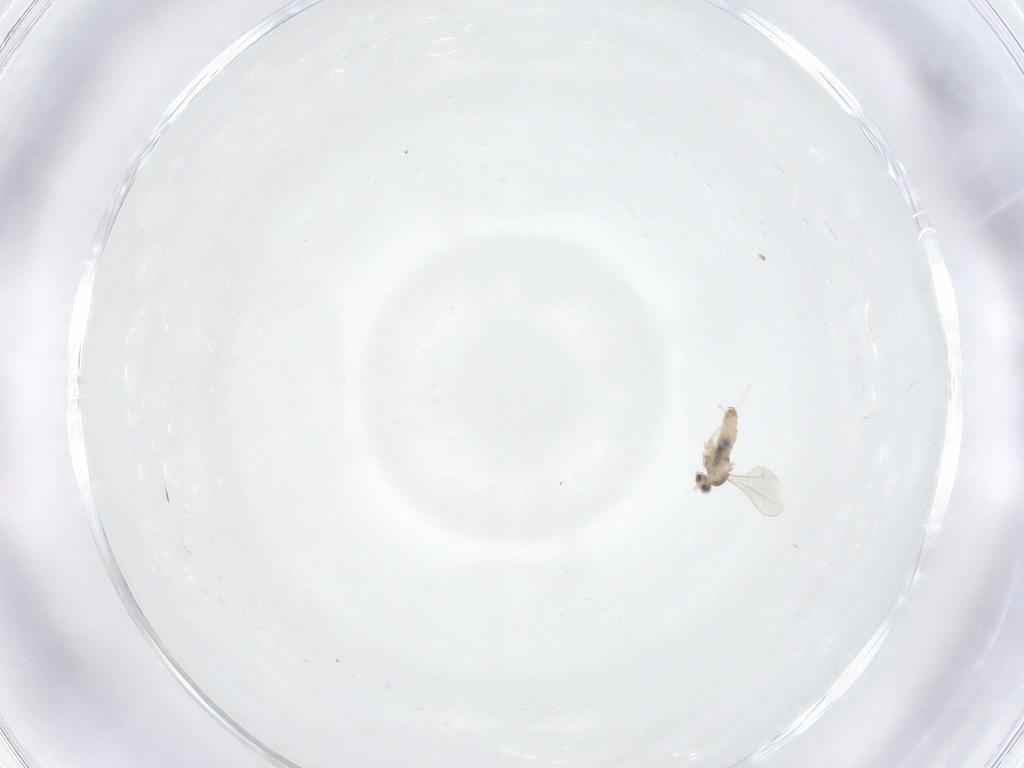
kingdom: Animalia
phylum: Arthropoda
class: Insecta
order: Diptera
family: Cecidomyiidae
